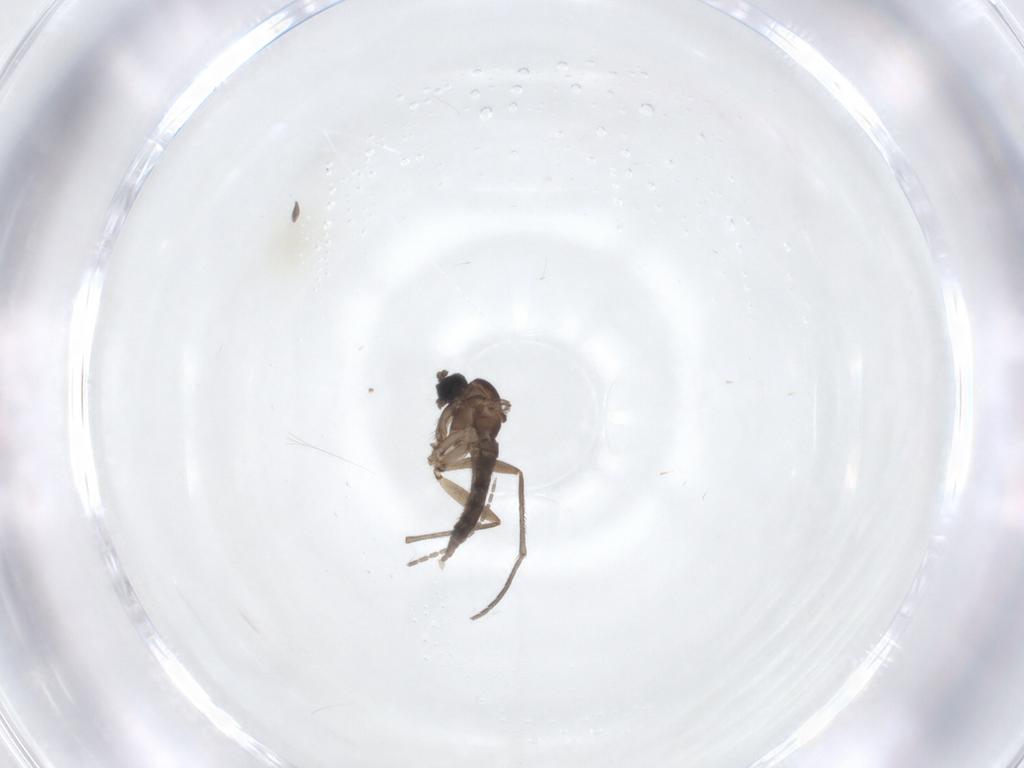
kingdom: Animalia
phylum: Arthropoda
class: Insecta
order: Diptera
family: Sciaridae
